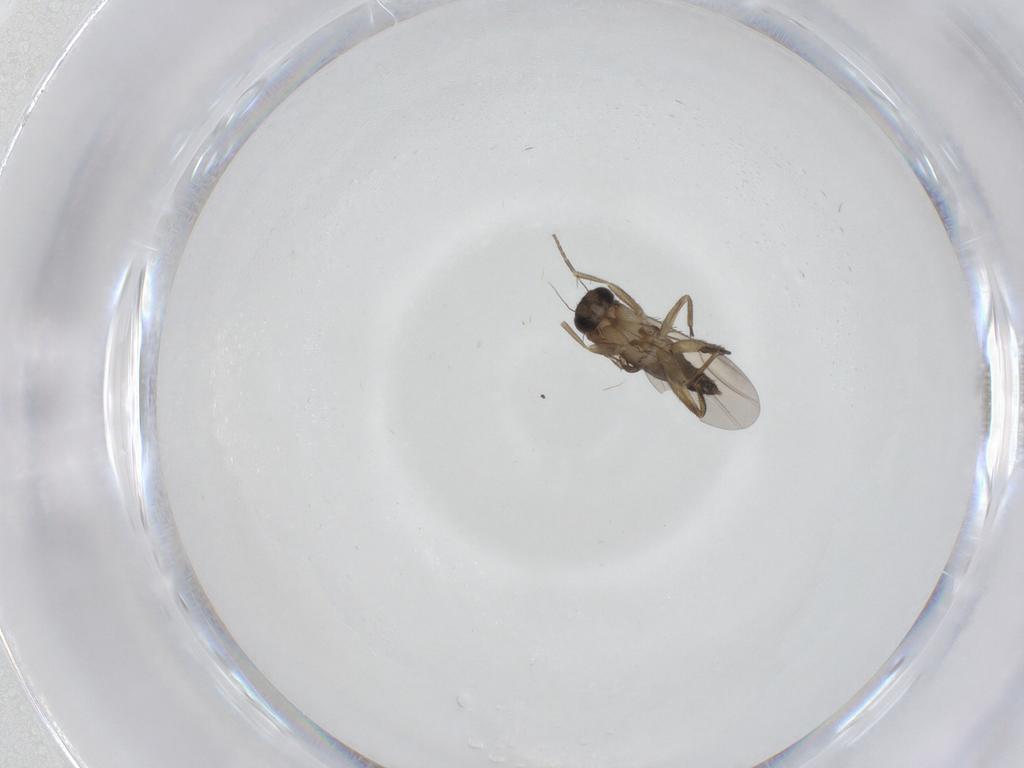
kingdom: Animalia
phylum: Arthropoda
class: Insecta
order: Diptera
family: Phoridae
